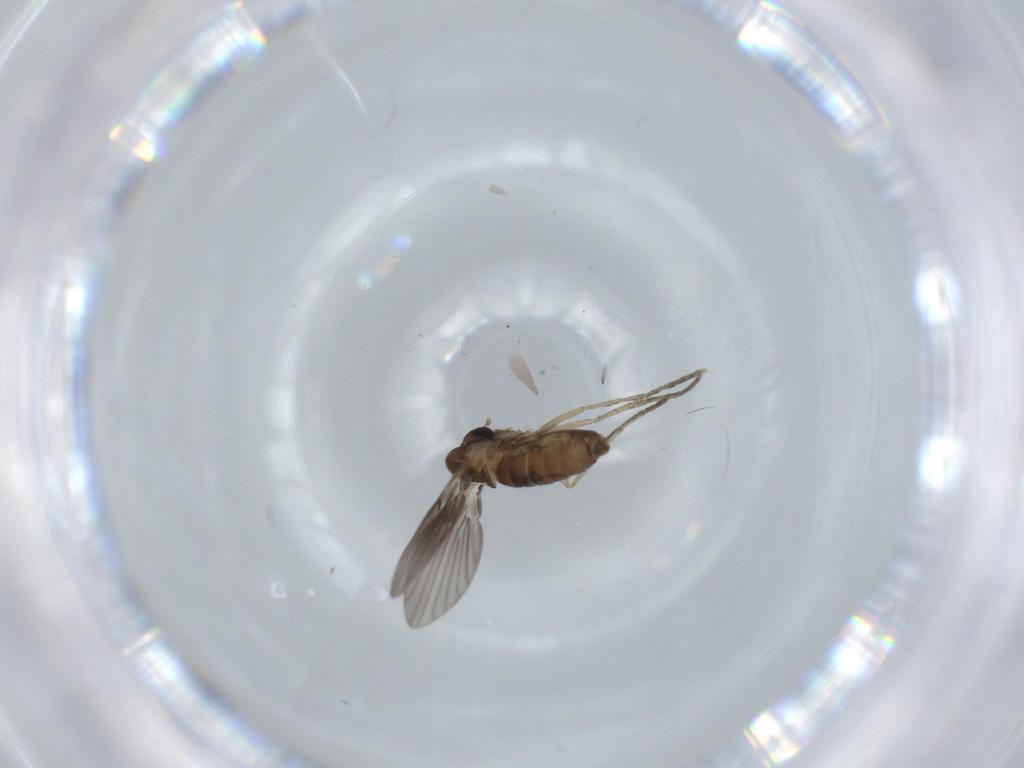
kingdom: Animalia
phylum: Arthropoda
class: Insecta
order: Diptera
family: Psychodidae
